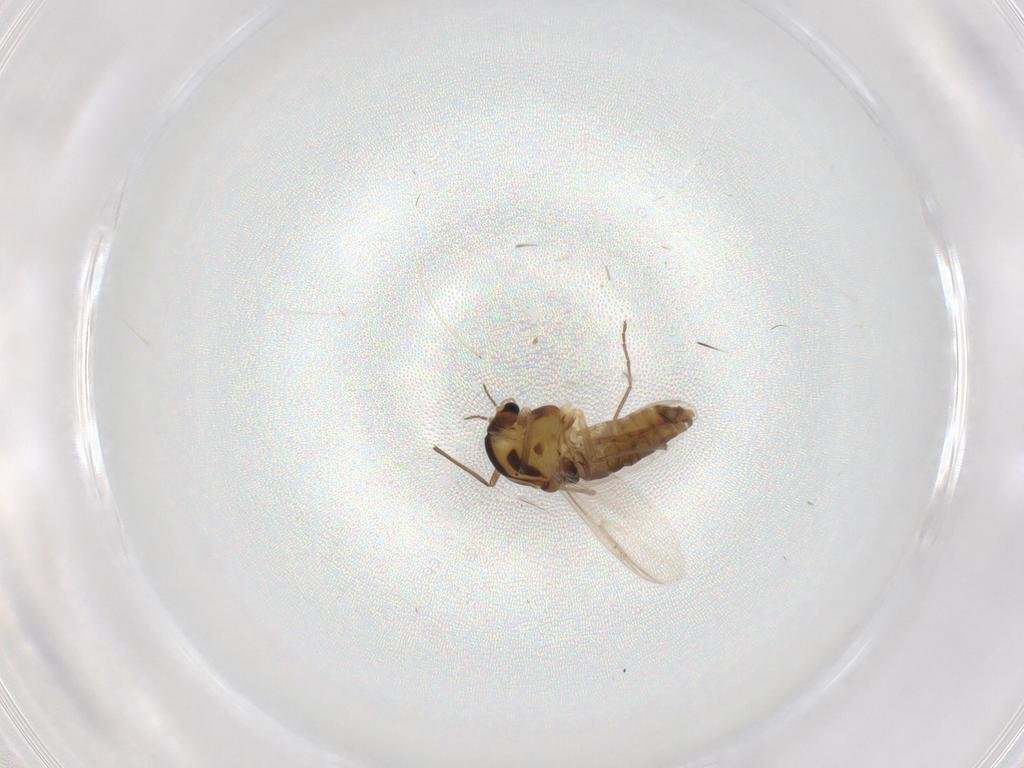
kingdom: Animalia
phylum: Arthropoda
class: Insecta
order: Diptera
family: Chironomidae
